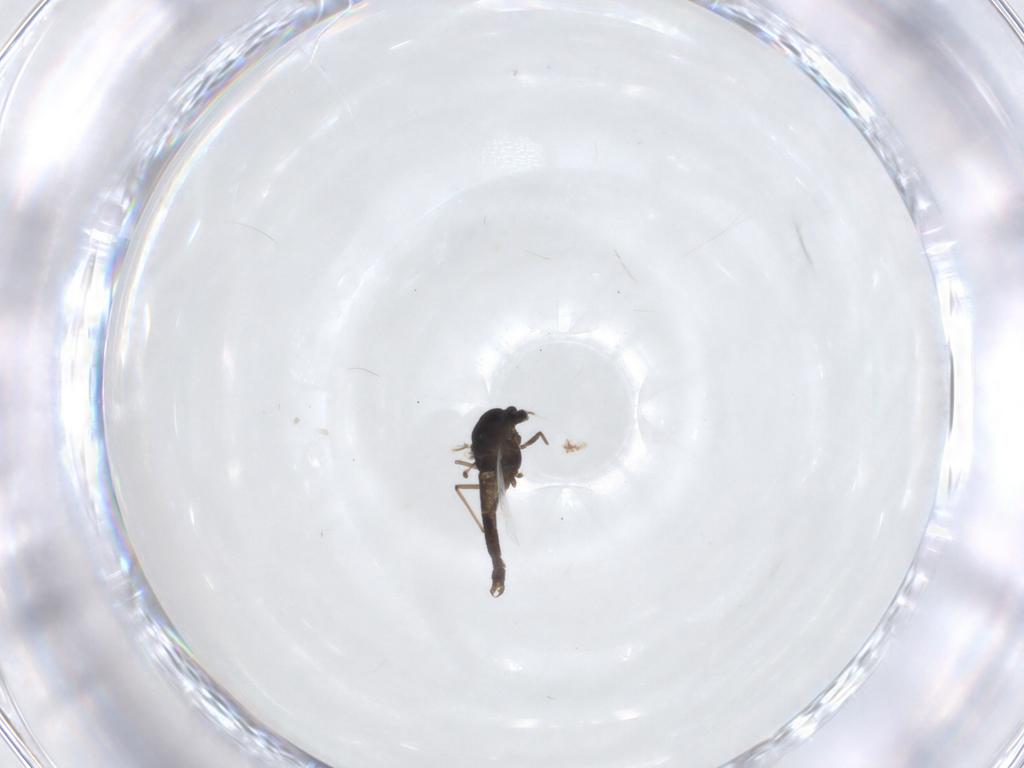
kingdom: Animalia
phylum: Arthropoda
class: Insecta
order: Diptera
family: Chironomidae
